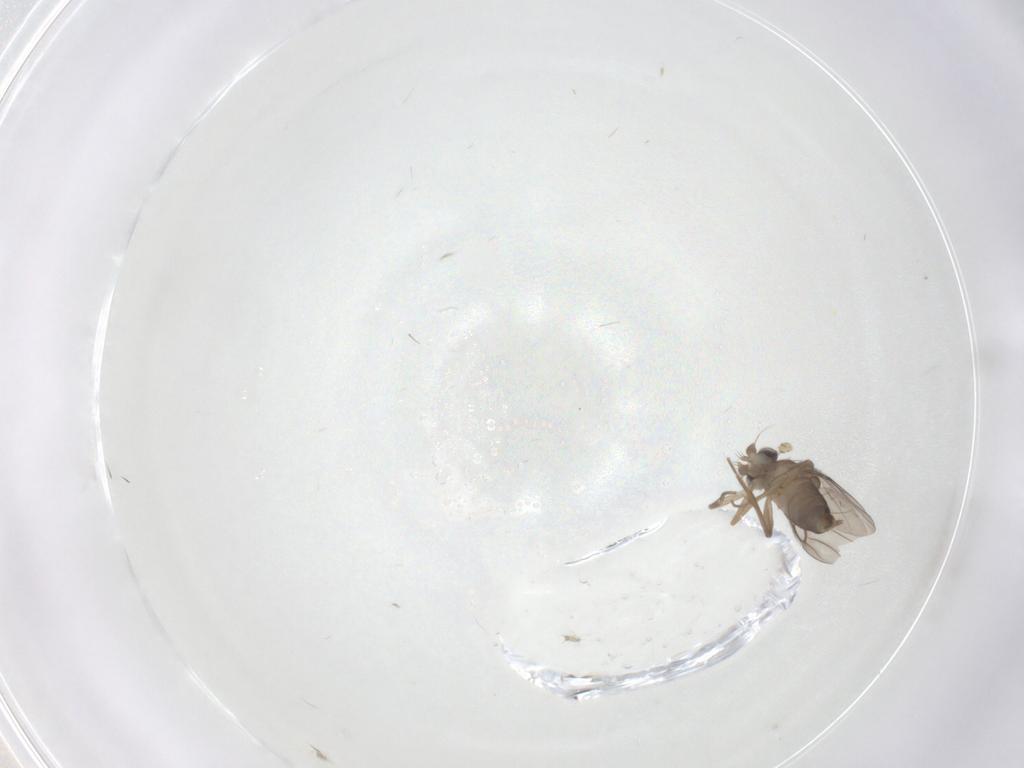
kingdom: Animalia
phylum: Arthropoda
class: Insecta
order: Diptera
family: Phoridae
